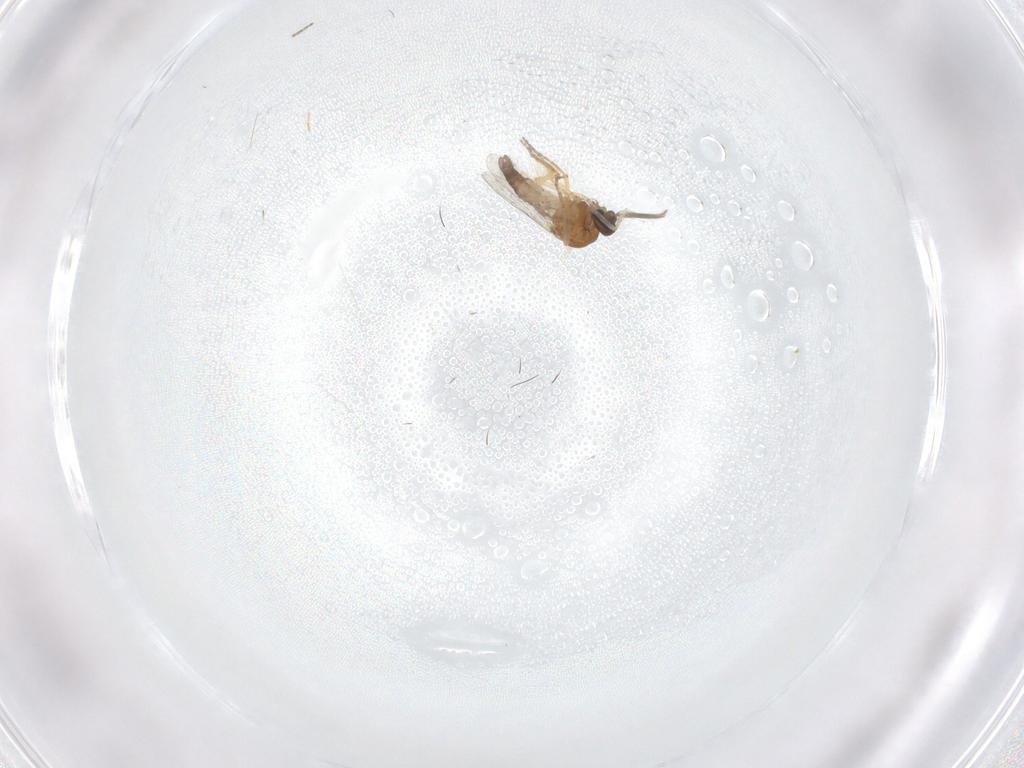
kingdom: Animalia
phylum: Arthropoda
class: Insecta
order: Diptera
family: Ceratopogonidae
